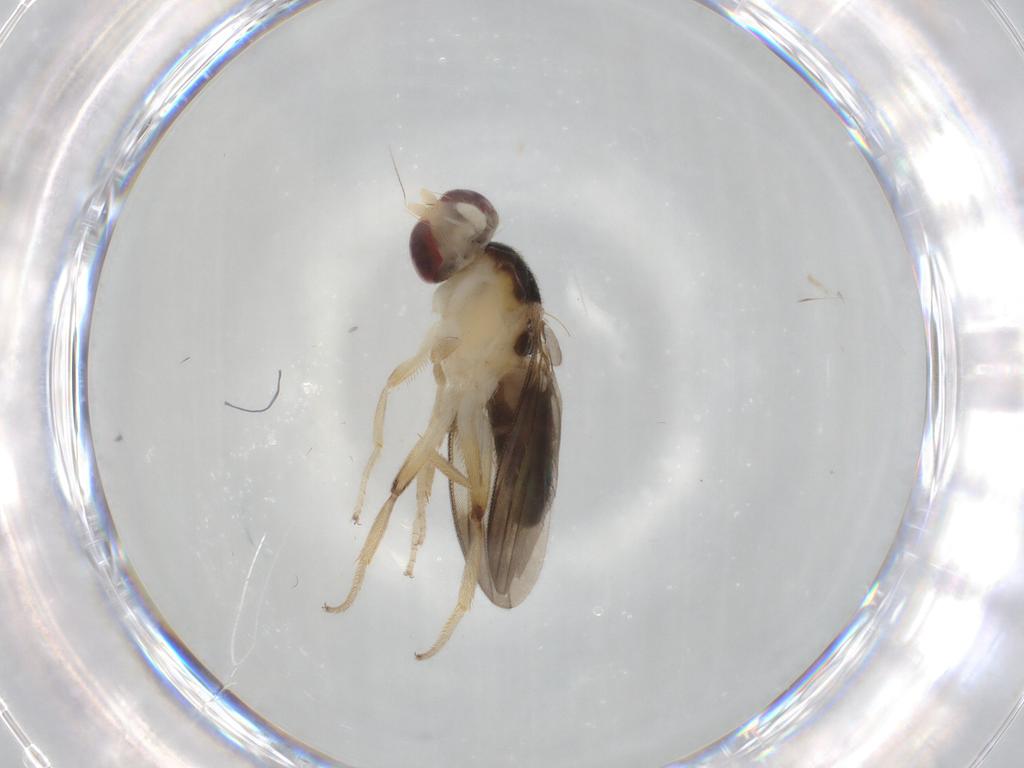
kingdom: Animalia
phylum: Arthropoda
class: Insecta
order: Diptera
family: Clusiidae
